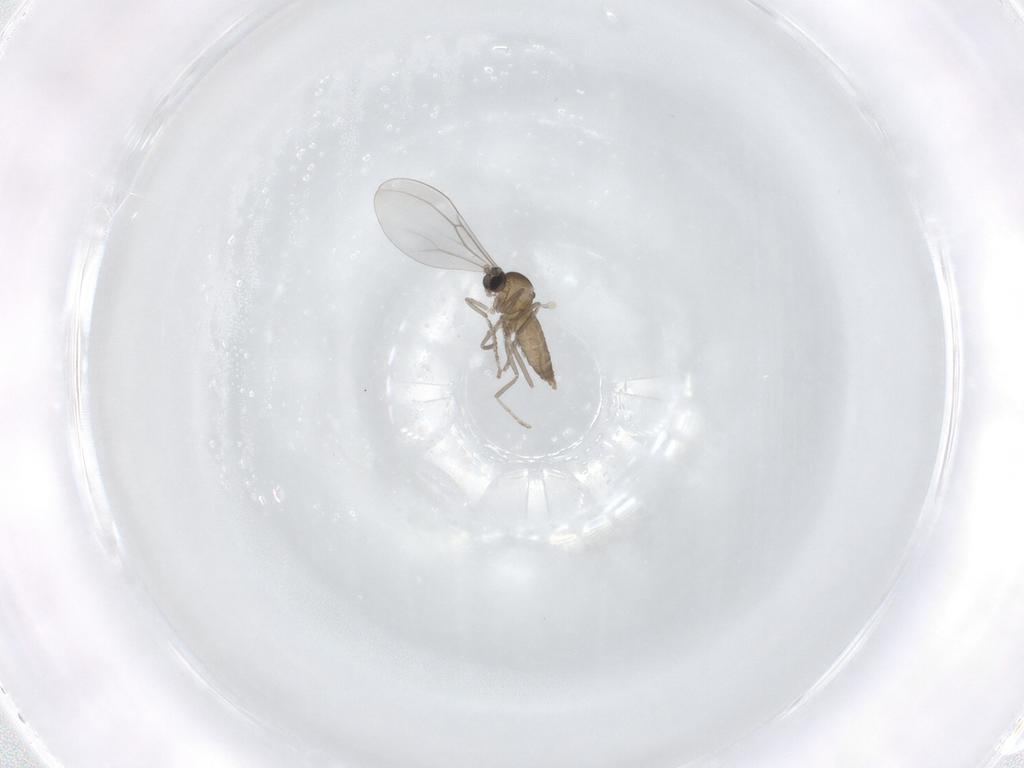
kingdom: Animalia
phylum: Arthropoda
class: Insecta
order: Diptera
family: Cecidomyiidae
